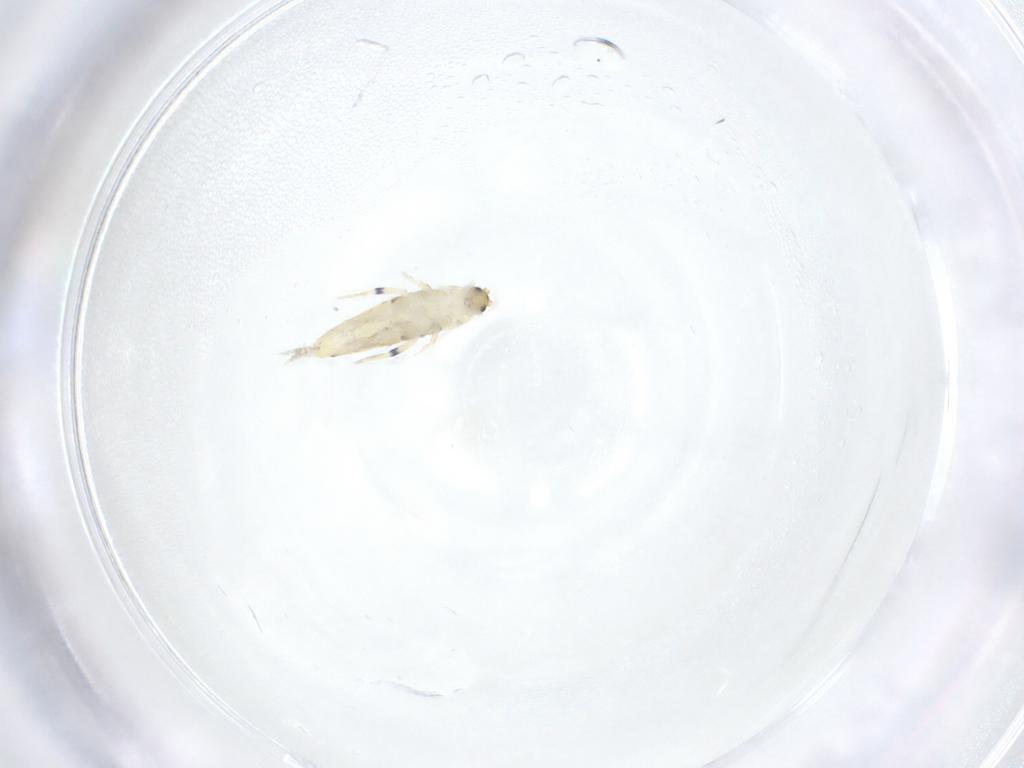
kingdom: Animalia
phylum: Arthropoda
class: Collembola
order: Entomobryomorpha
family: Entomobryidae
